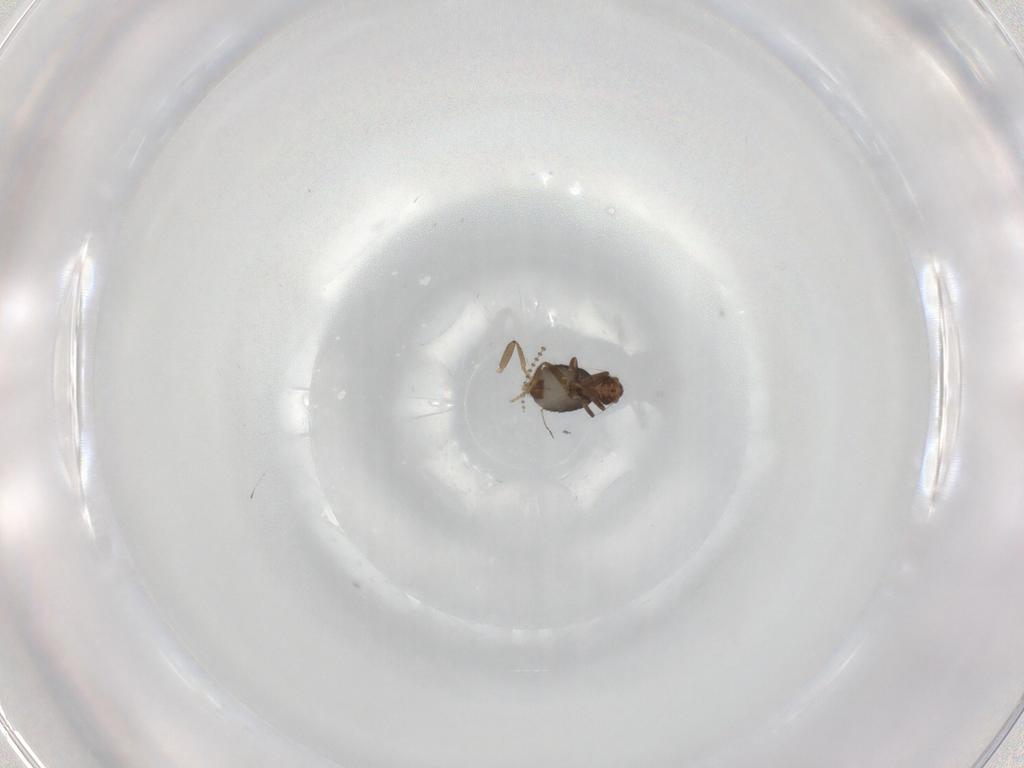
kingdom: Animalia
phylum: Arthropoda
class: Insecta
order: Diptera
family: Phoridae
